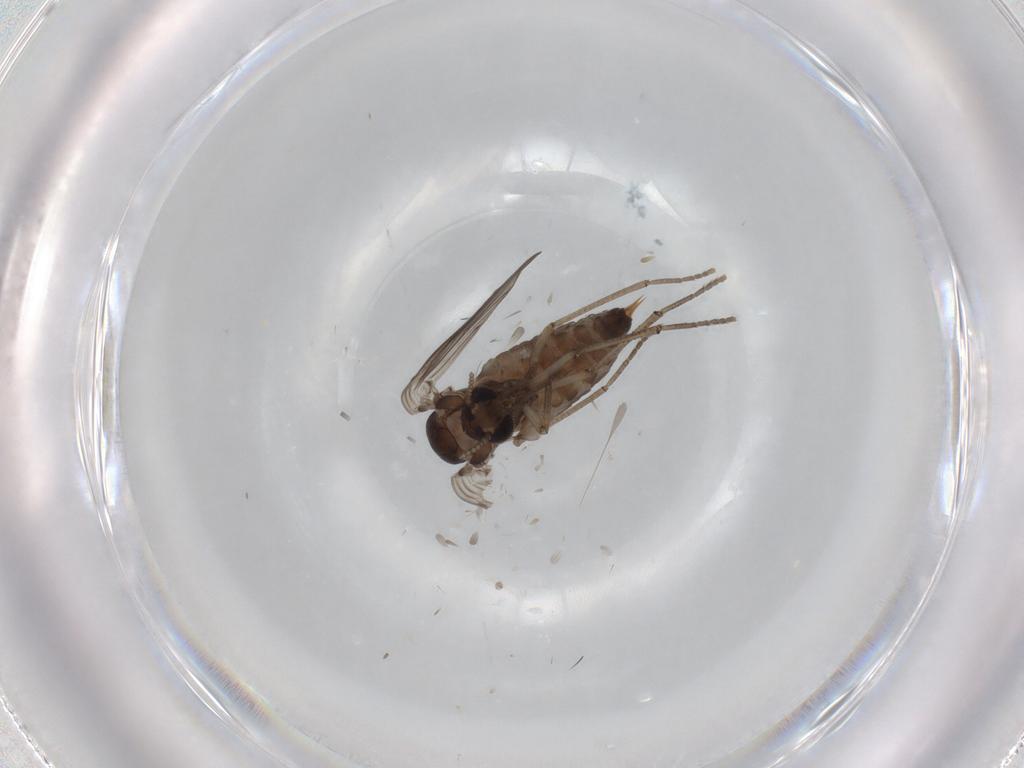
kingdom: Animalia
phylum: Arthropoda
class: Insecta
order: Diptera
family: Psychodidae
